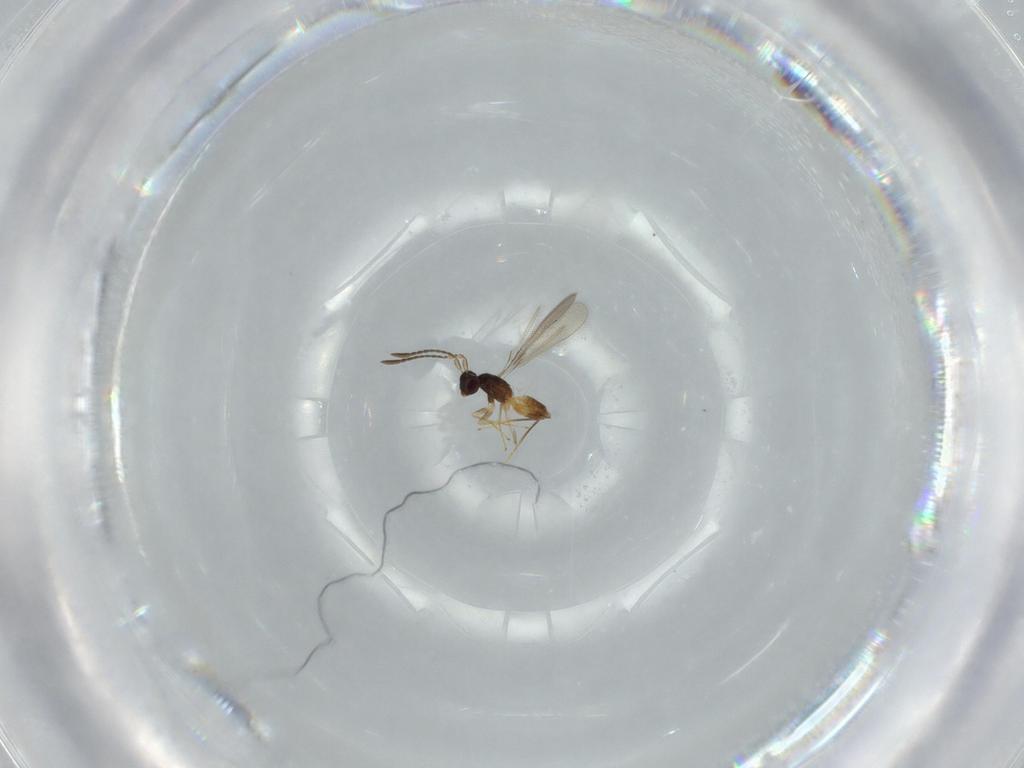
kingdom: Animalia
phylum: Arthropoda
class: Insecta
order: Hymenoptera
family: Mymaridae
